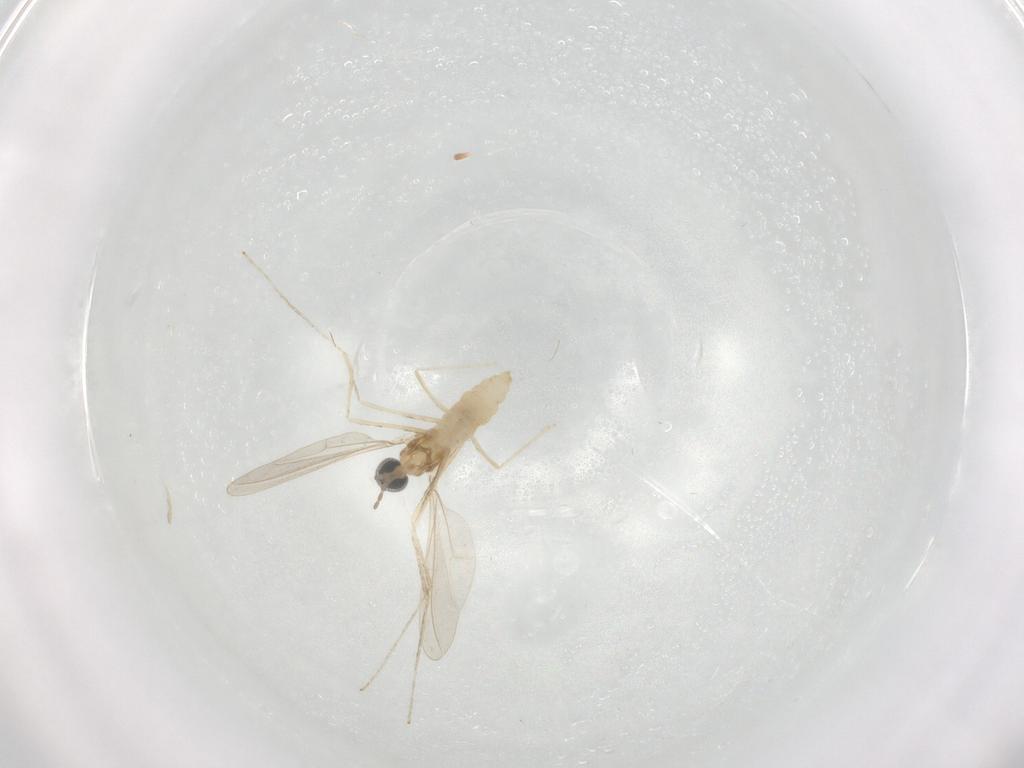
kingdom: Animalia
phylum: Arthropoda
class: Insecta
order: Diptera
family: Cecidomyiidae
